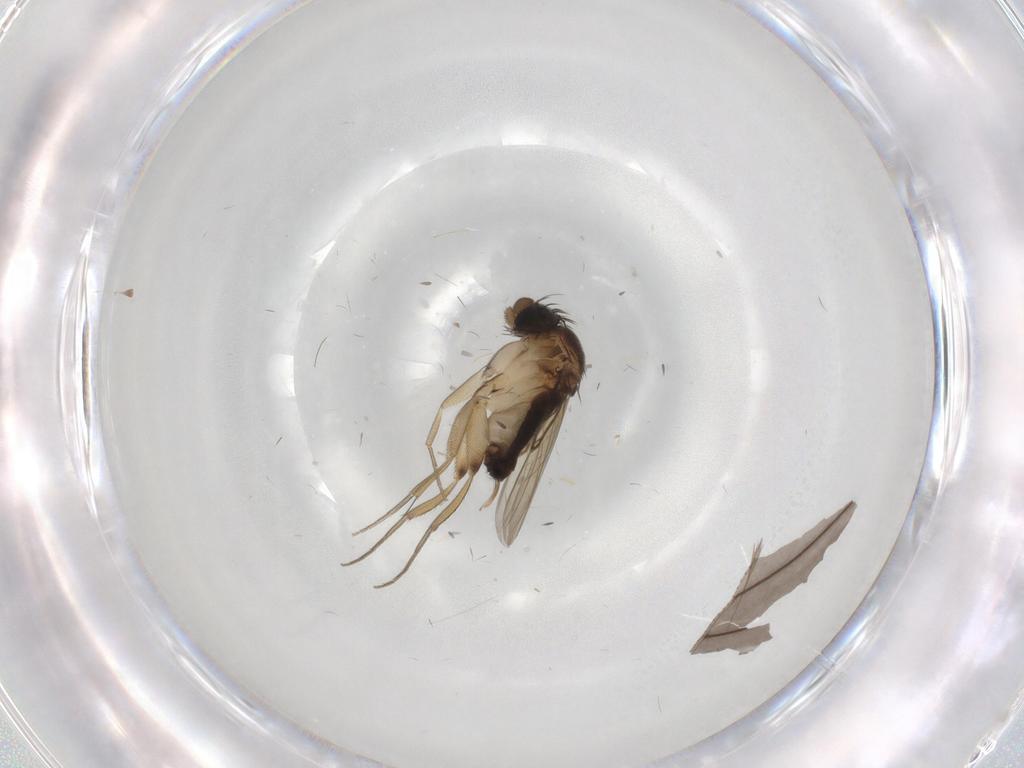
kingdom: Animalia
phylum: Arthropoda
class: Insecta
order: Diptera
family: Phoridae
